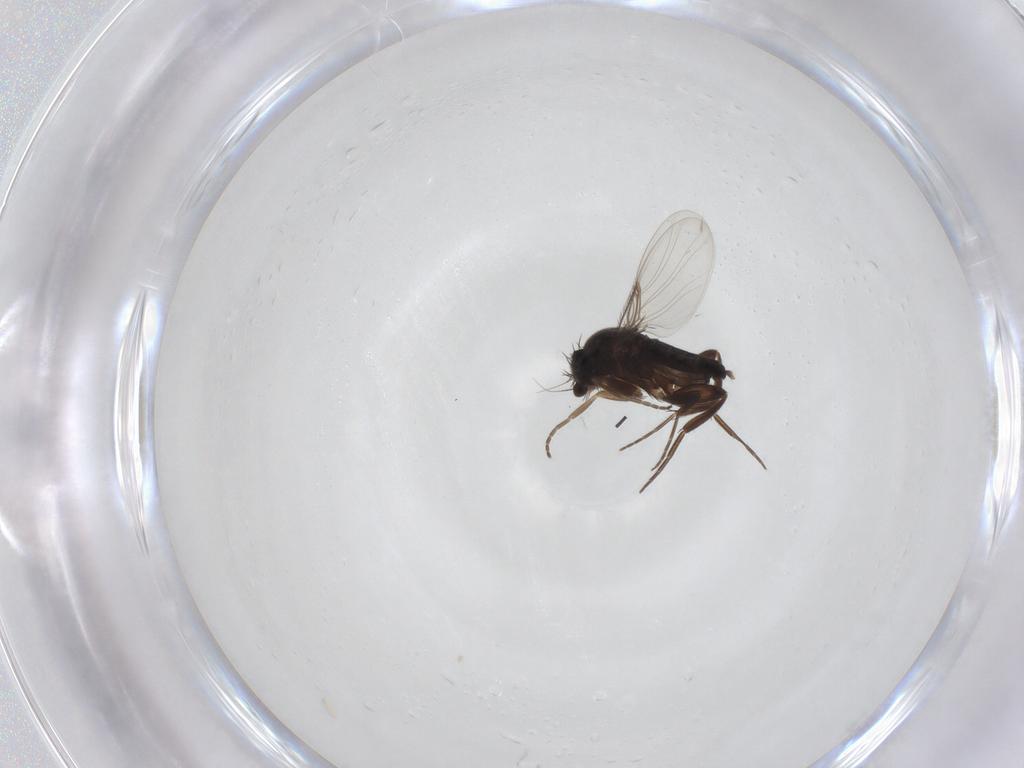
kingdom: Animalia
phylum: Arthropoda
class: Insecta
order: Diptera
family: Phoridae
